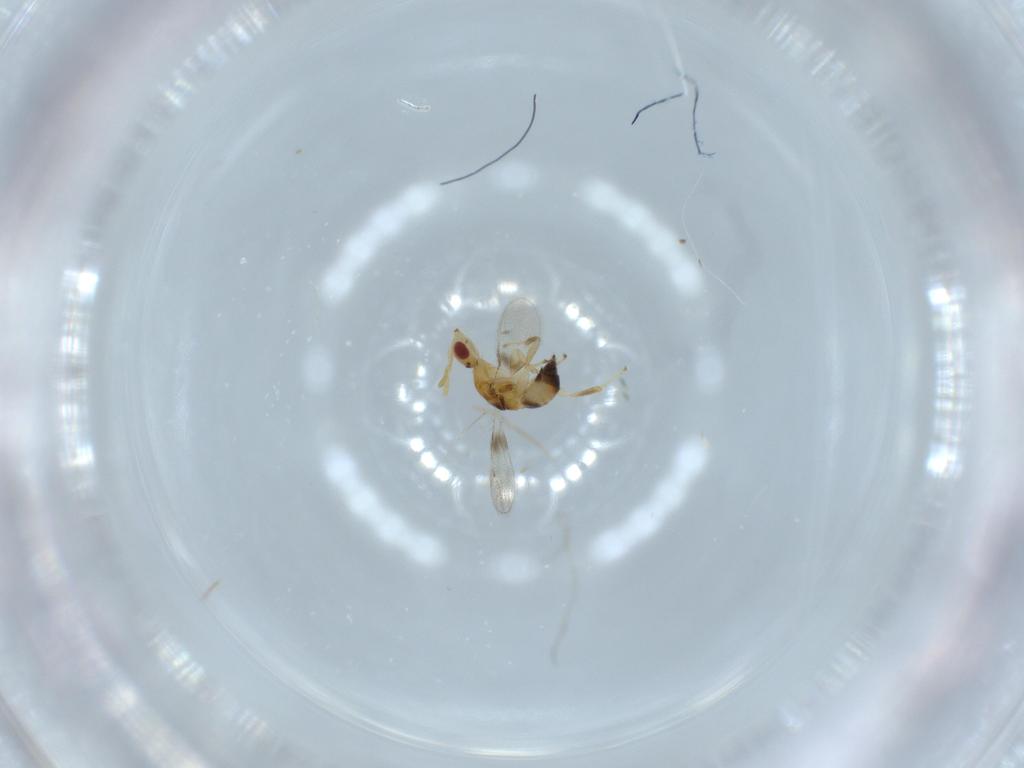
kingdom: Animalia
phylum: Arthropoda
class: Insecta
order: Hymenoptera
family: Torymidae
